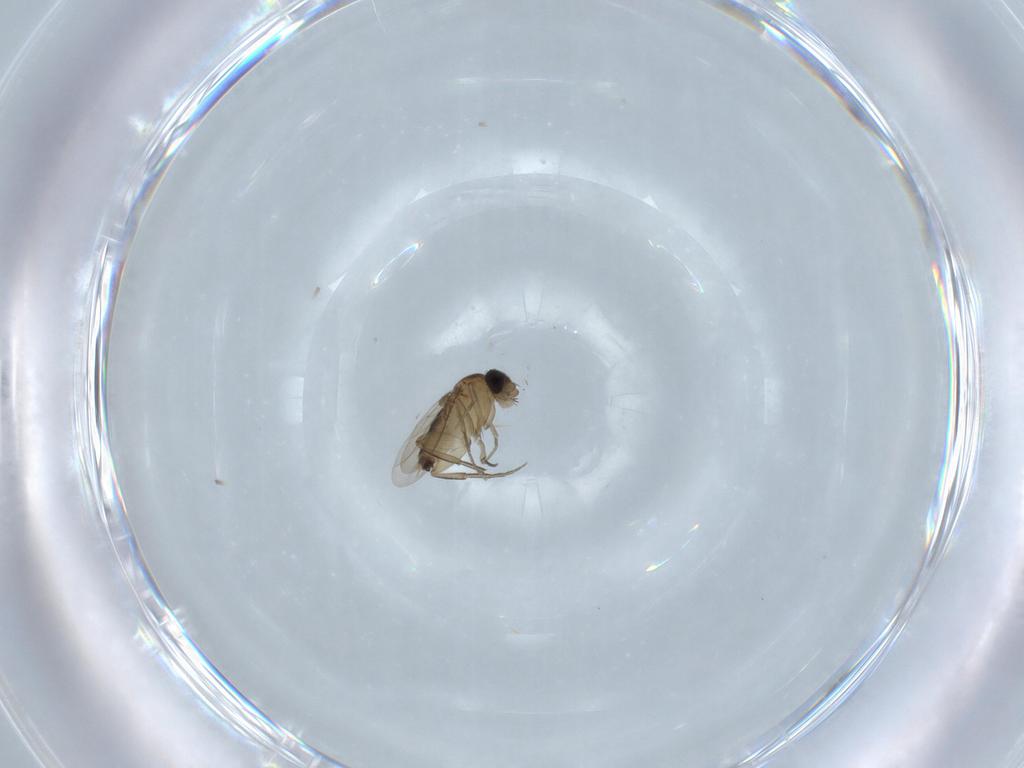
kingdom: Animalia
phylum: Arthropoda
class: Insecta
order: Diptera
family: Phoridae
